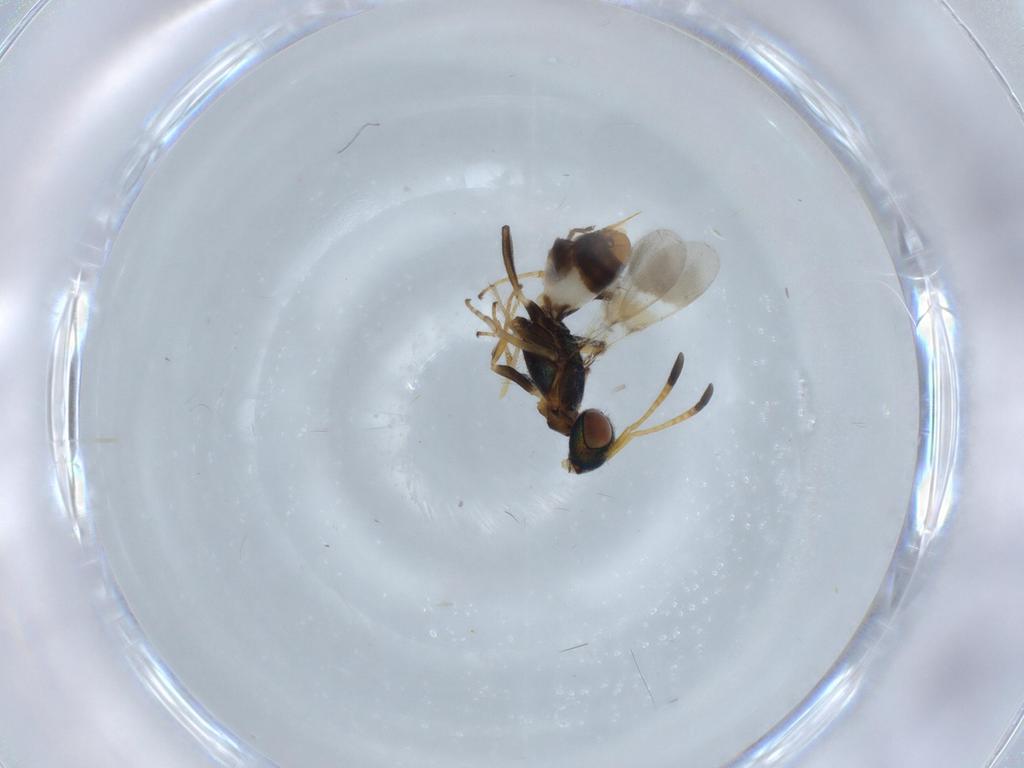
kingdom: Animalia
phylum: Arthropoda
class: Insecta
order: Hymenoptera
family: Eupelmidae
